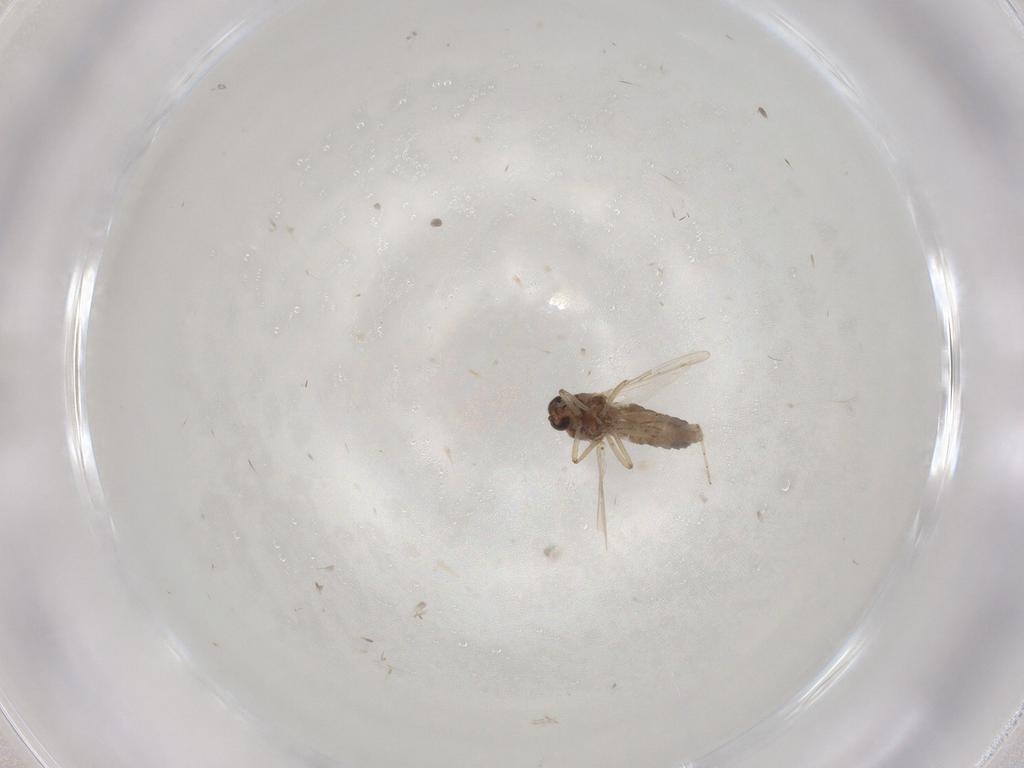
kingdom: Animalia
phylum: Arthropoda
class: Insecta
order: Diptera
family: Ceratopogonidae
